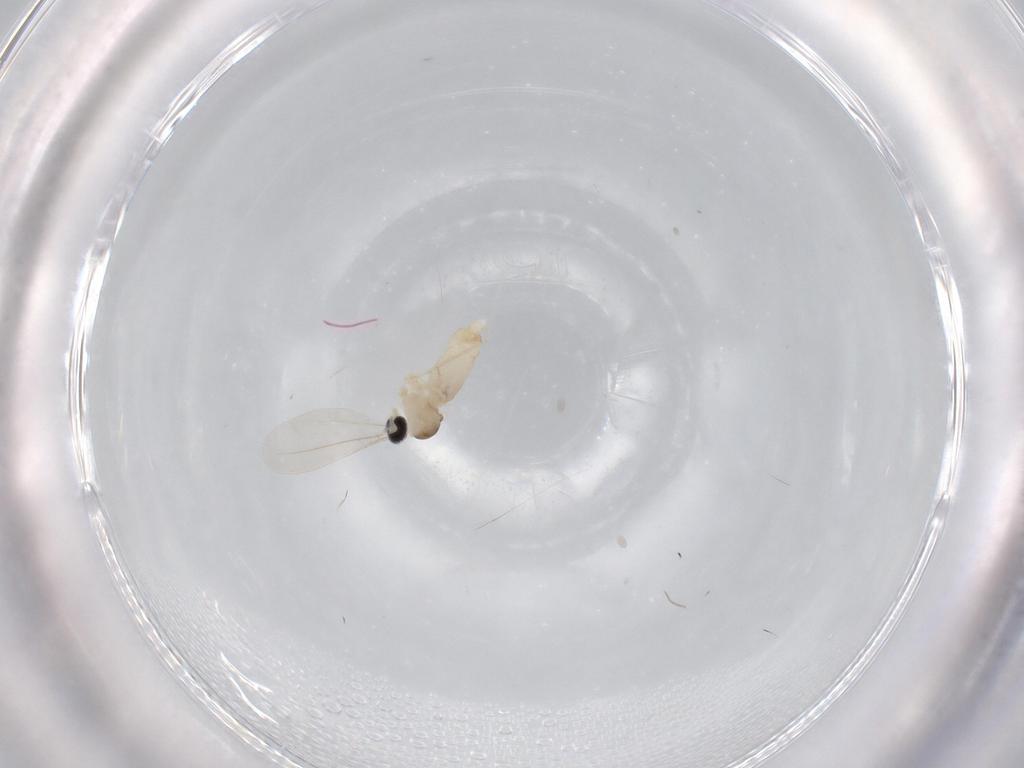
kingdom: Animalia
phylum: Arthropoda
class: Insecta
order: Diptera
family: Cecidomyiidae
